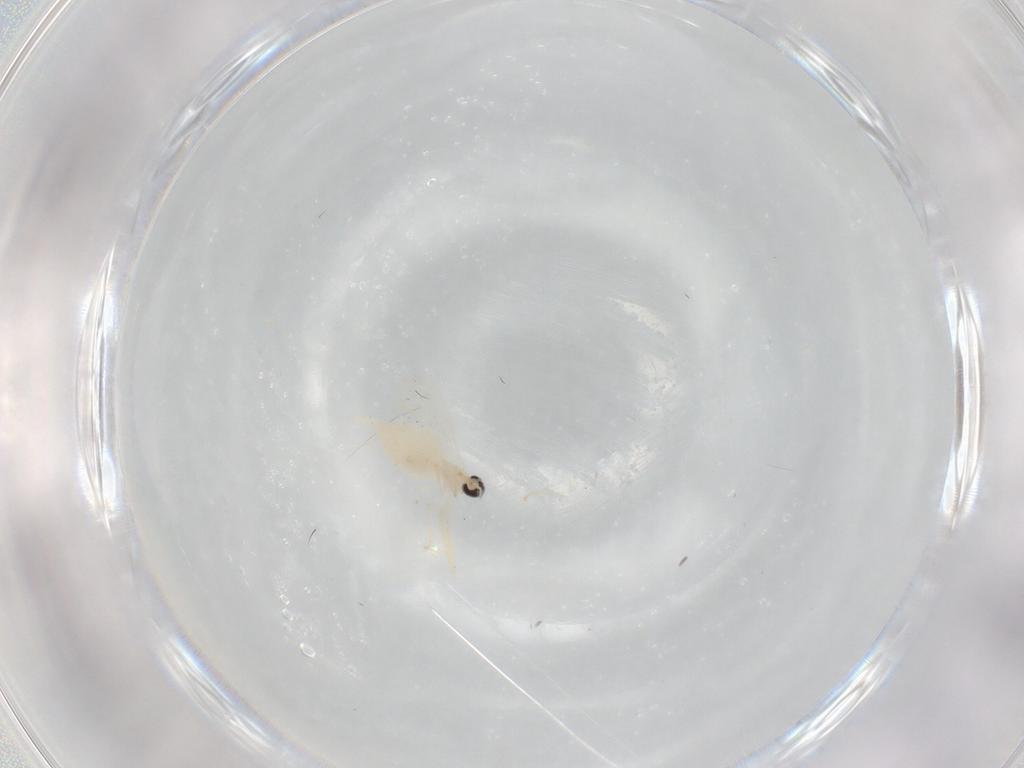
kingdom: Animalia
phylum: Arthropoda
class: Insecta
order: Diptera
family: Cecidomyiidae
